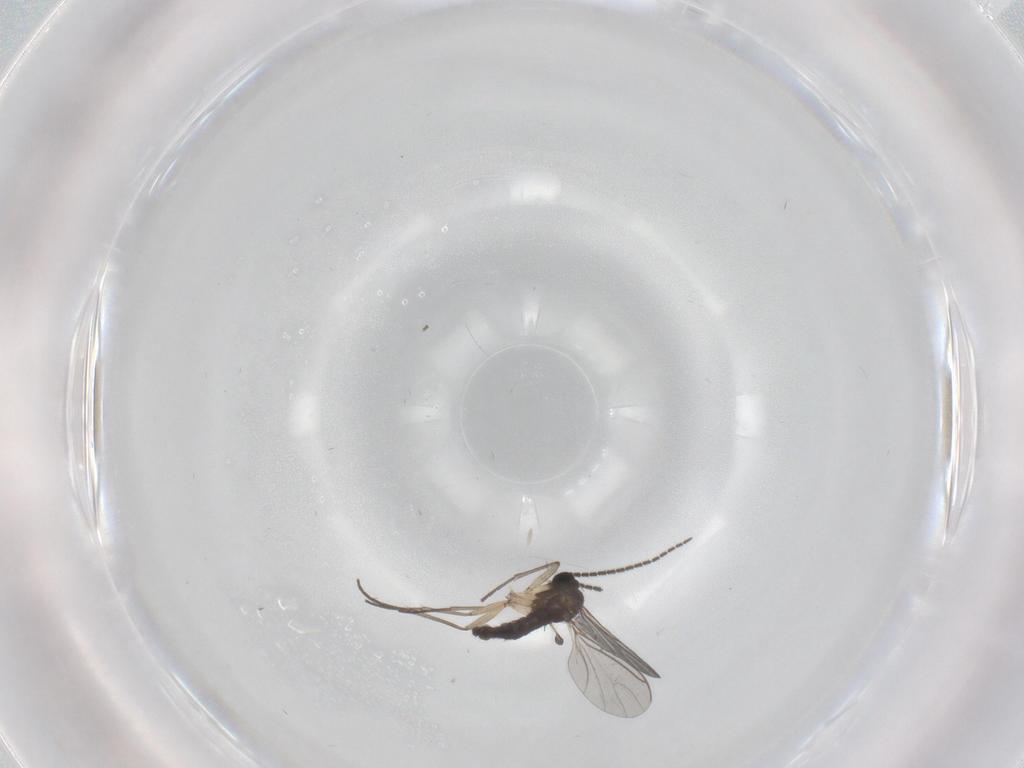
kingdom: Animalia
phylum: Arthropoda
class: Insecta
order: Diptera
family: Sciaridae
